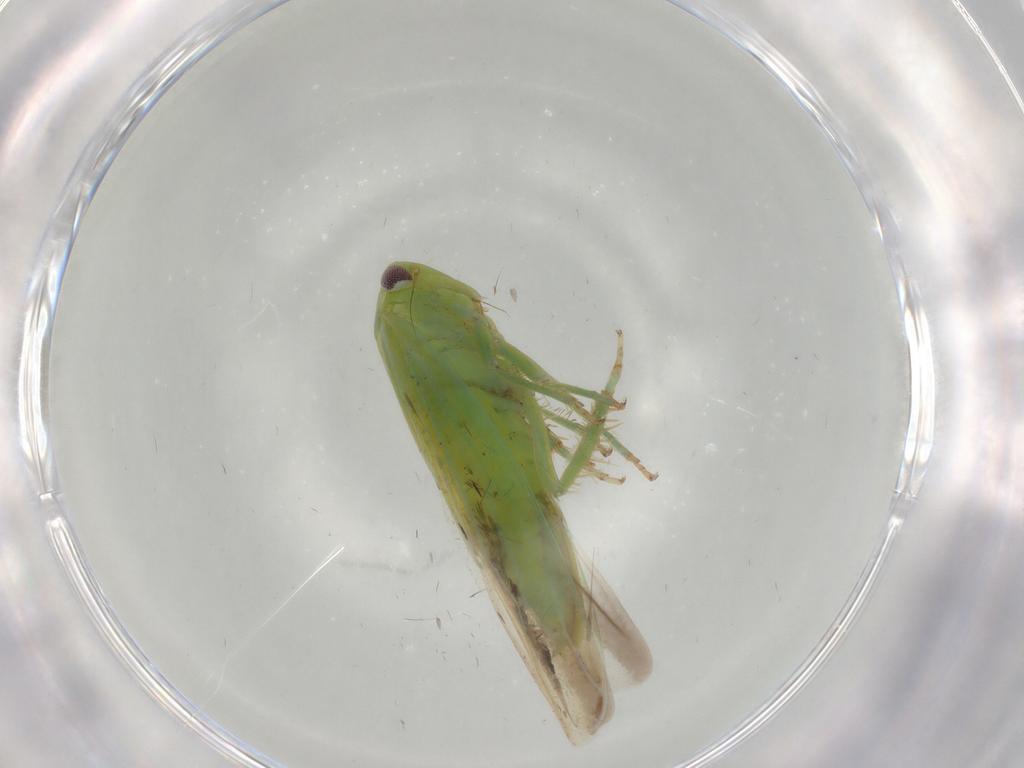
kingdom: Animalia
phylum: Arthropoda
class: Insecta
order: Hemiptera
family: Cicadellidae
